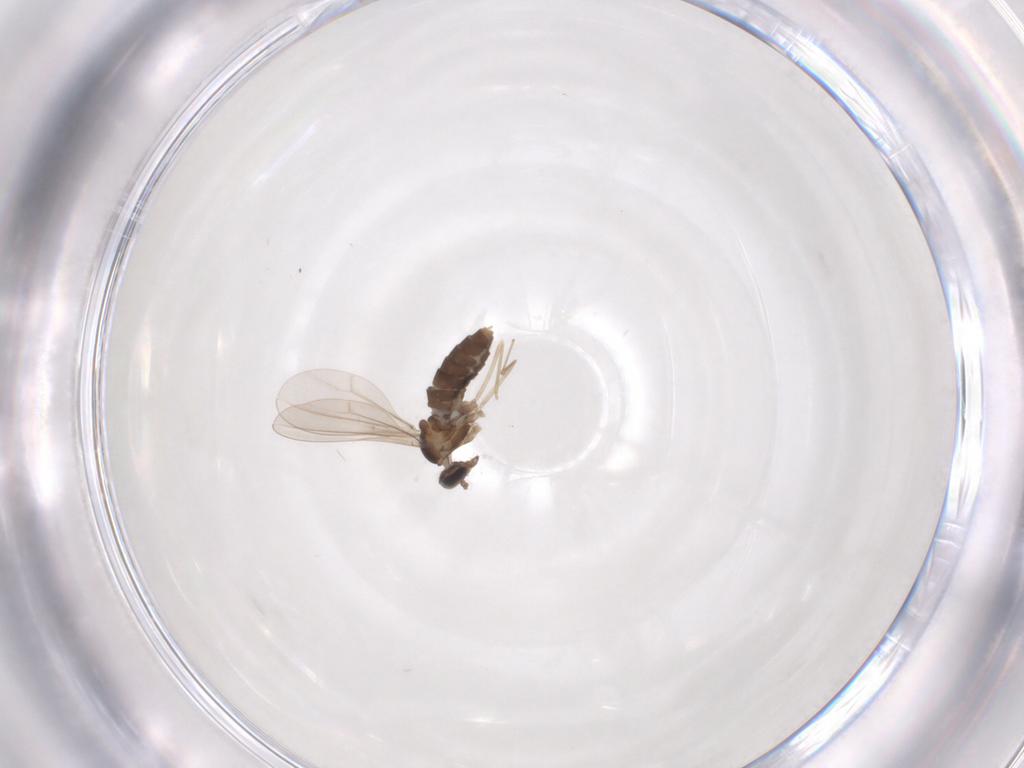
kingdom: Animalia
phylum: Arthropoda
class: Insecta
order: Diptera
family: Cecidomyiidae
